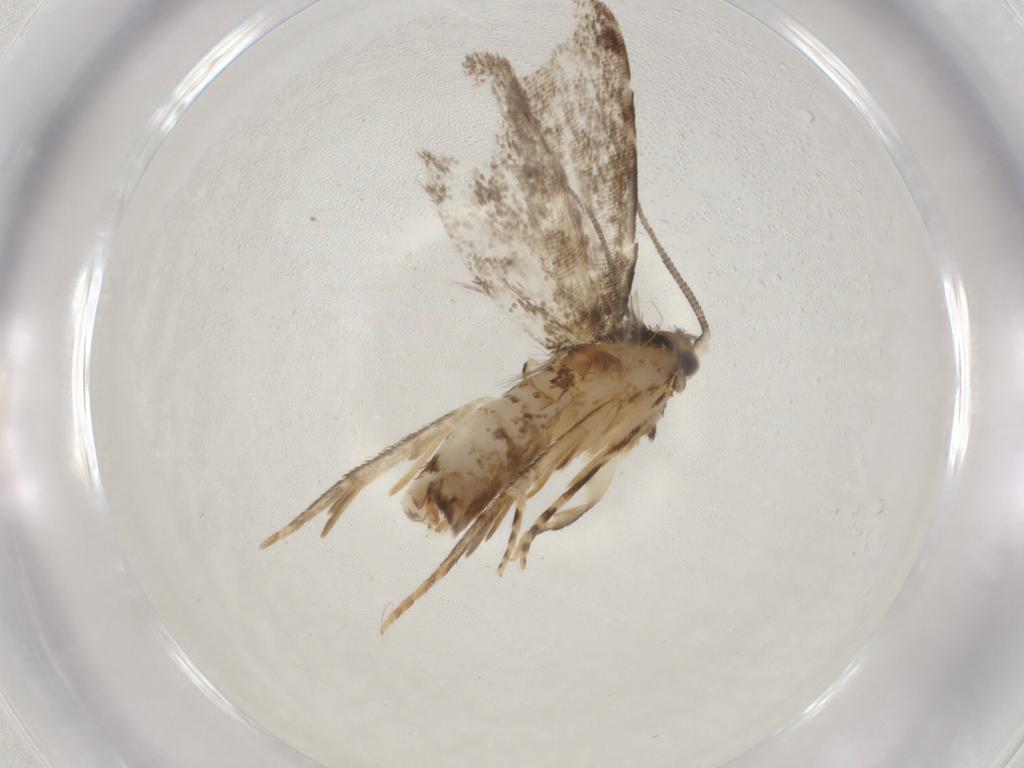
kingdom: Animalia
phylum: Arthropoda
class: Insecta
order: Lepidoptera
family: Dryadaulidae
